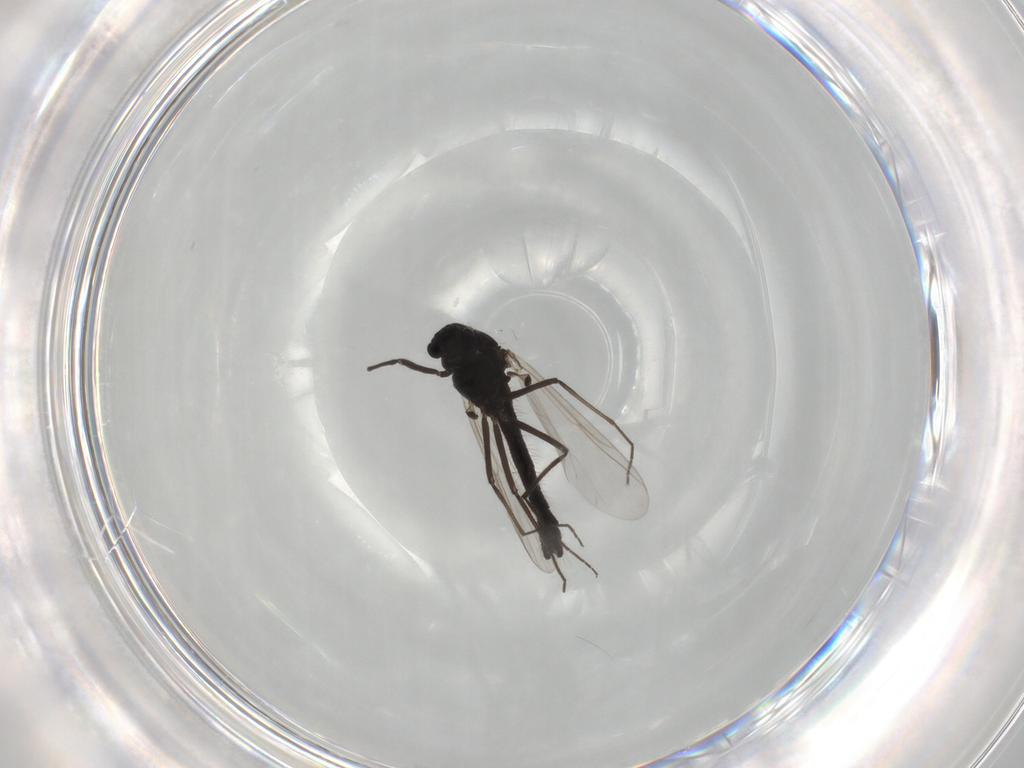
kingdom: Animalia
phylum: Arthropoda
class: Insecta
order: Diptera
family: Chironomidae
